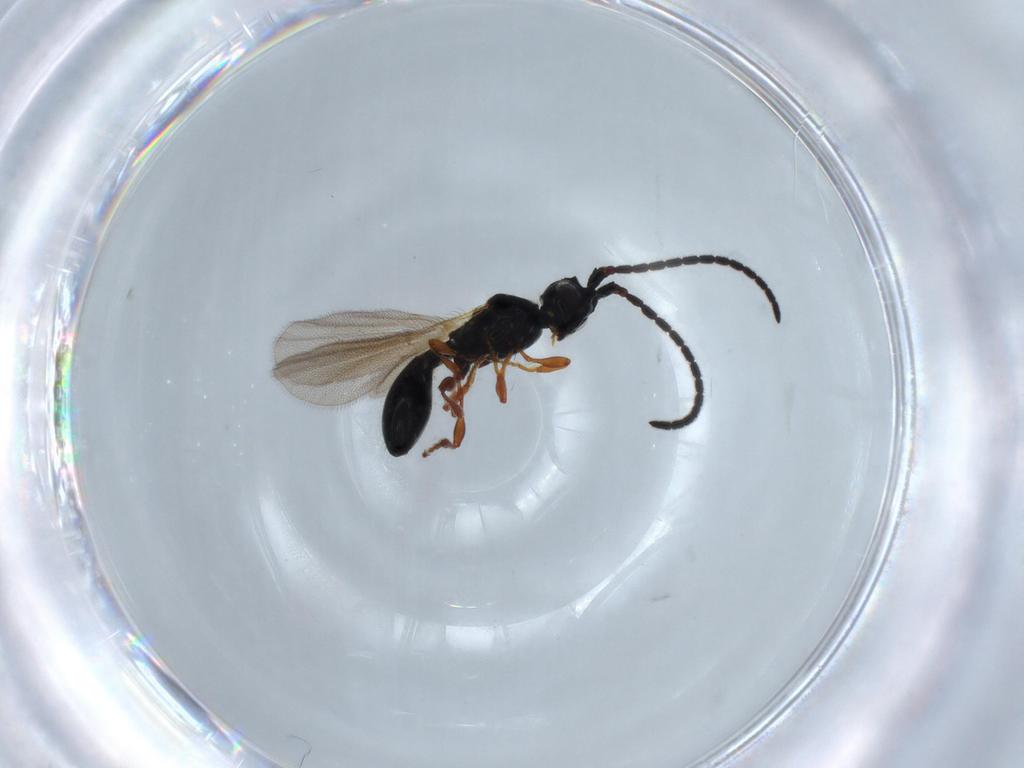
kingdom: Animalia
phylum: Arthropoda
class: Insecta
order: Hymenoptera
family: Diapriidae
